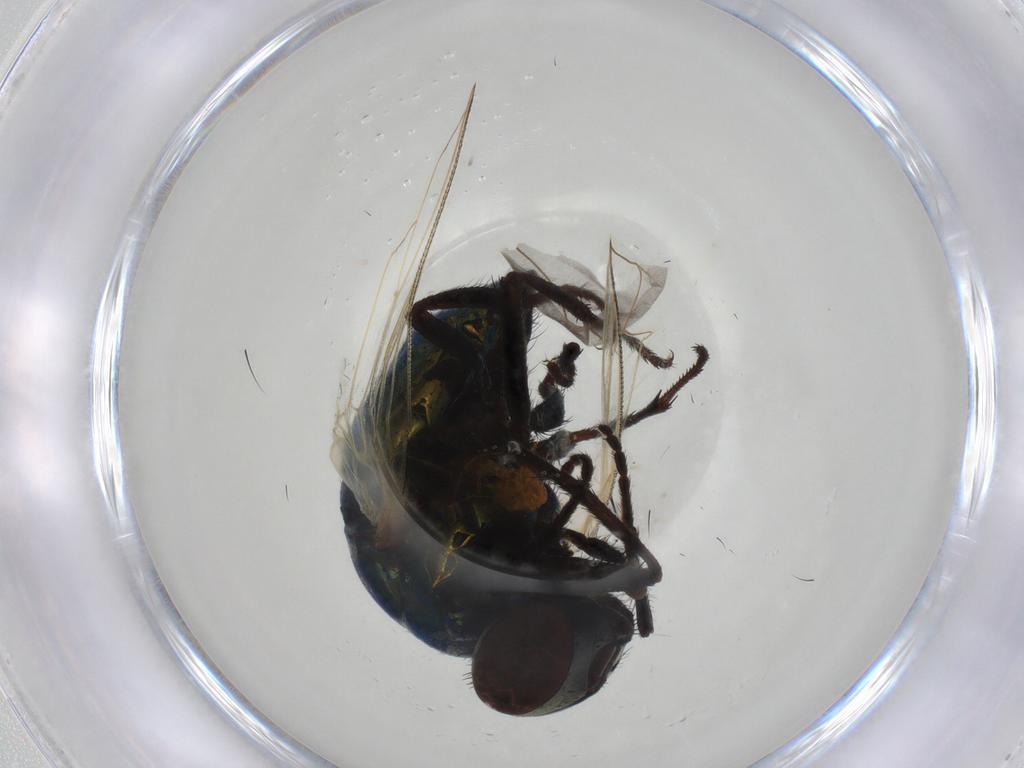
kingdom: Animalia
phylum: Arthropoda
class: Insecta
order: Diptera
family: Muscidae
